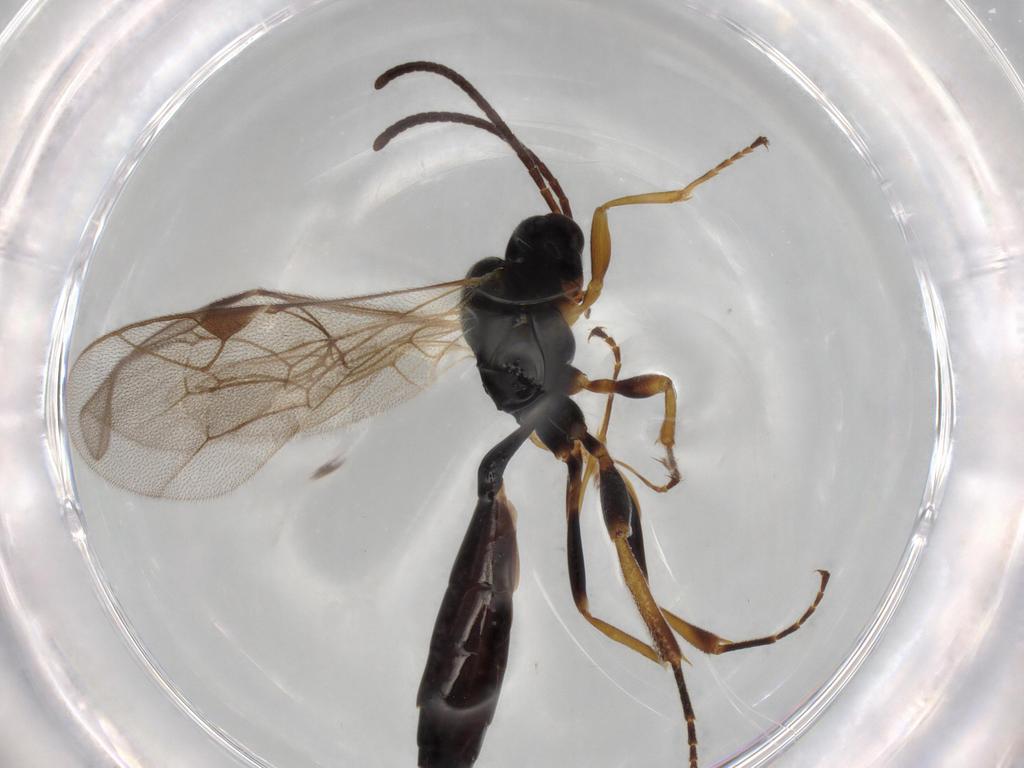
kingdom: Animalia
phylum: Arthropoda
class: Insecta
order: Hymenoptera
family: Ichneumonidae
